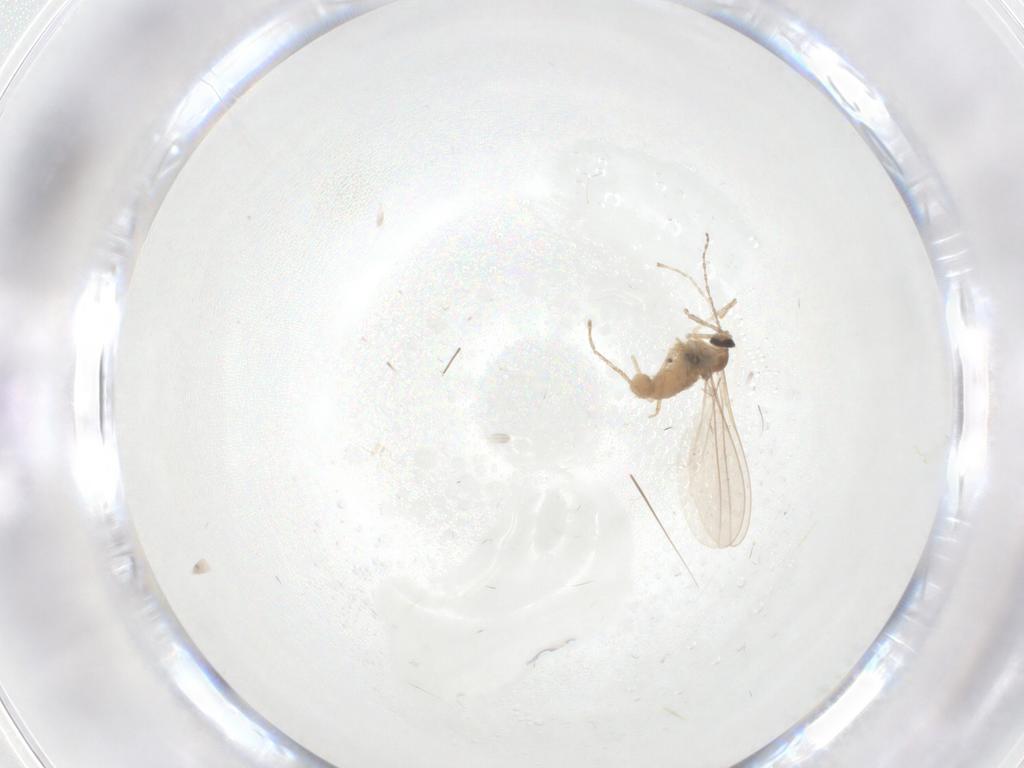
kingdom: Animalia
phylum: Arthropoda
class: Insecta
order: Diptera
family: Cecidomyiidae
